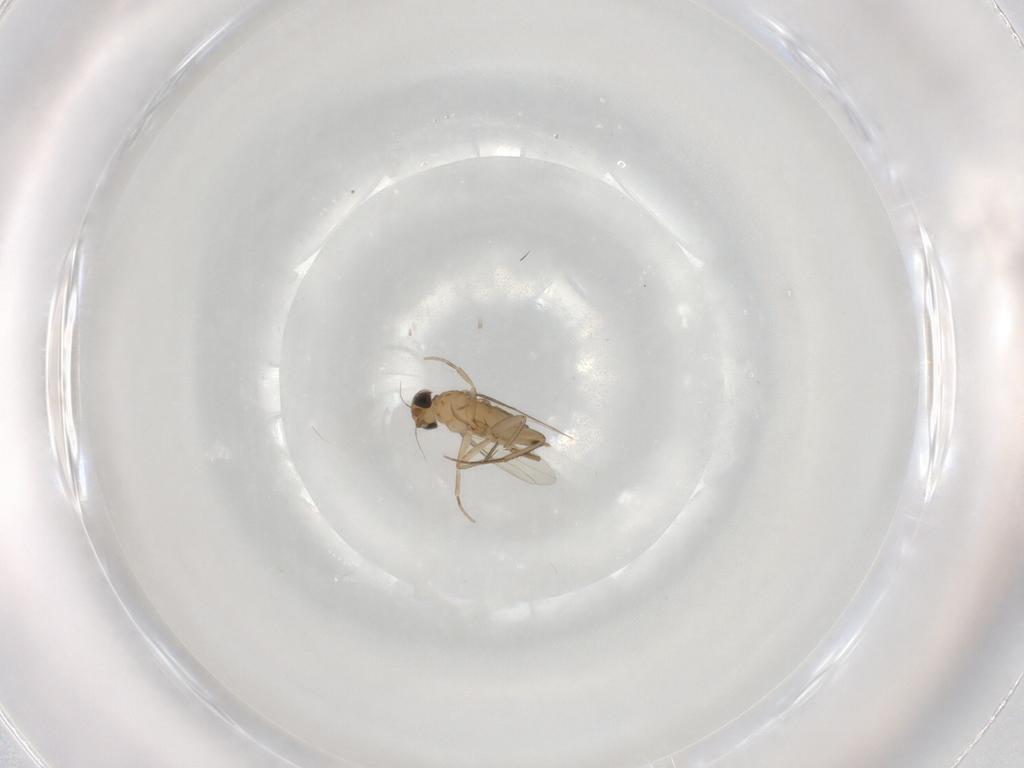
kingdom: Animalia
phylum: Arthropoda
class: Insecta
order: Diptera
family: Phoridae
